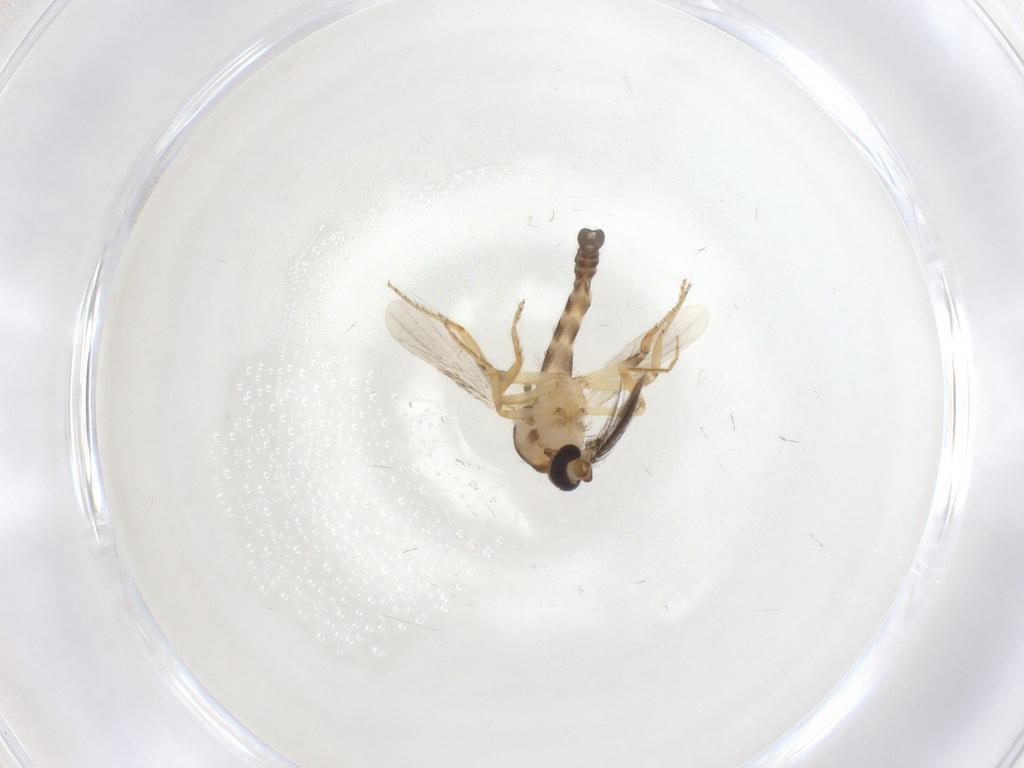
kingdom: Animalia
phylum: Arthropoda
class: Insecta
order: Diptera
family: Ceratopogonidae
